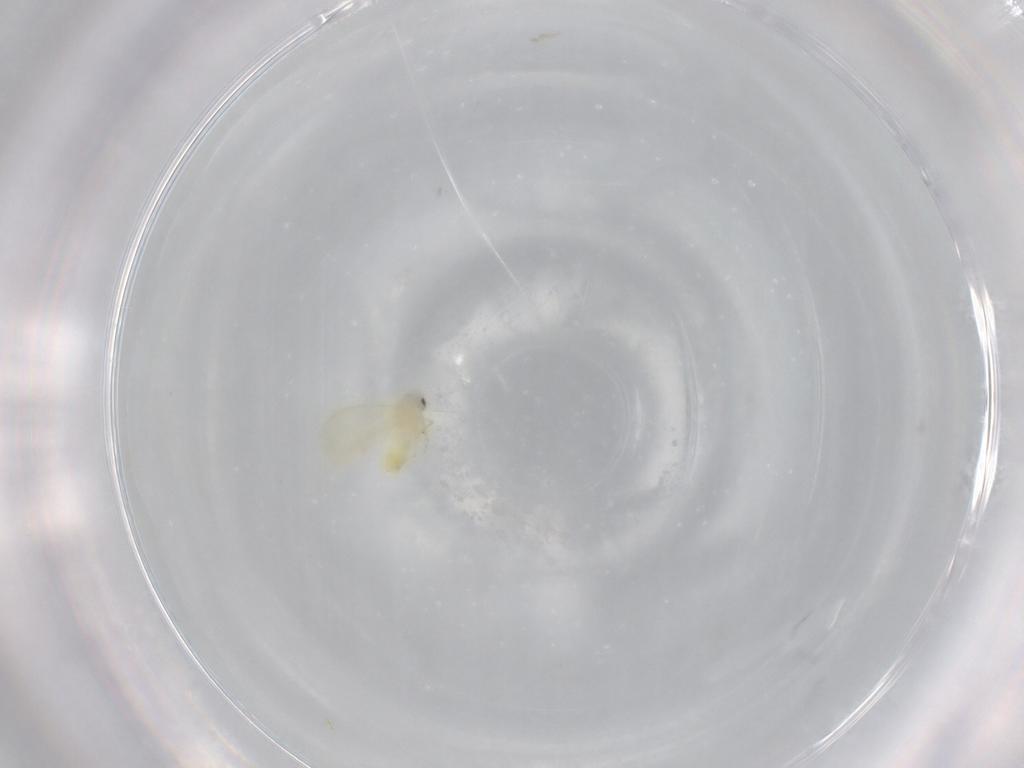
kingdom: Animalia
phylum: Arthropoda
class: Insecta
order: Hemiptera
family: Aleyrodidae
